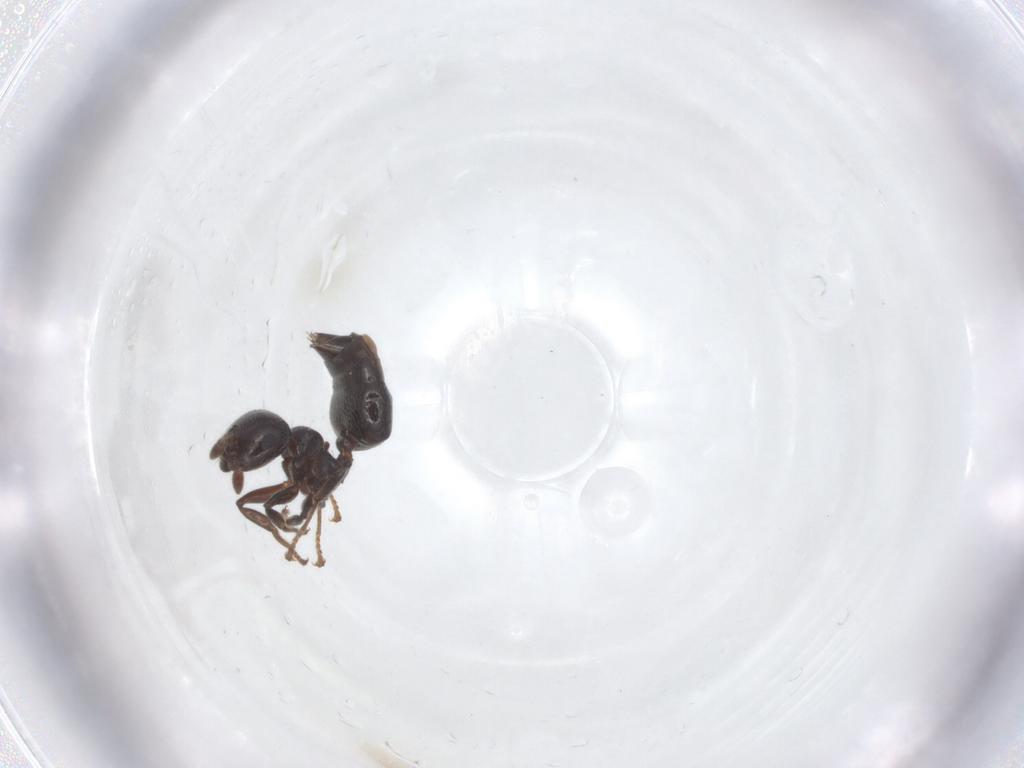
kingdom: Animalia
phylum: Arthropoda
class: Insecta
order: Hymenoptera
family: Formicidae
